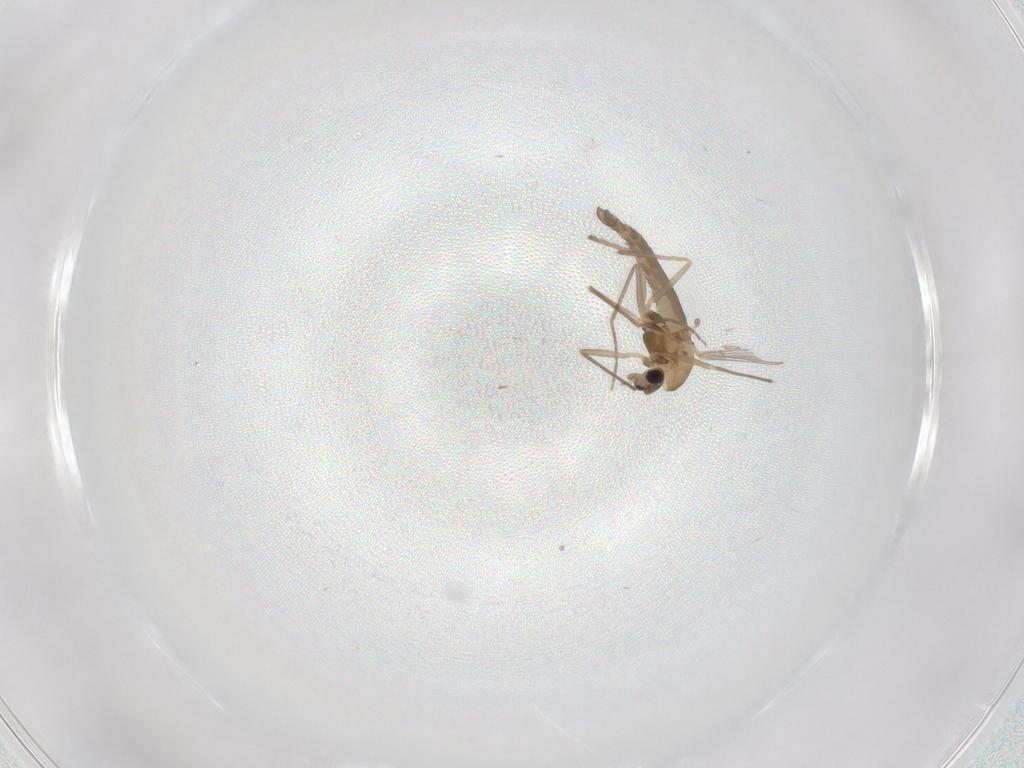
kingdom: Animalia
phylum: Arthropoda
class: Insecta
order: Diptera
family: Chironomidae
